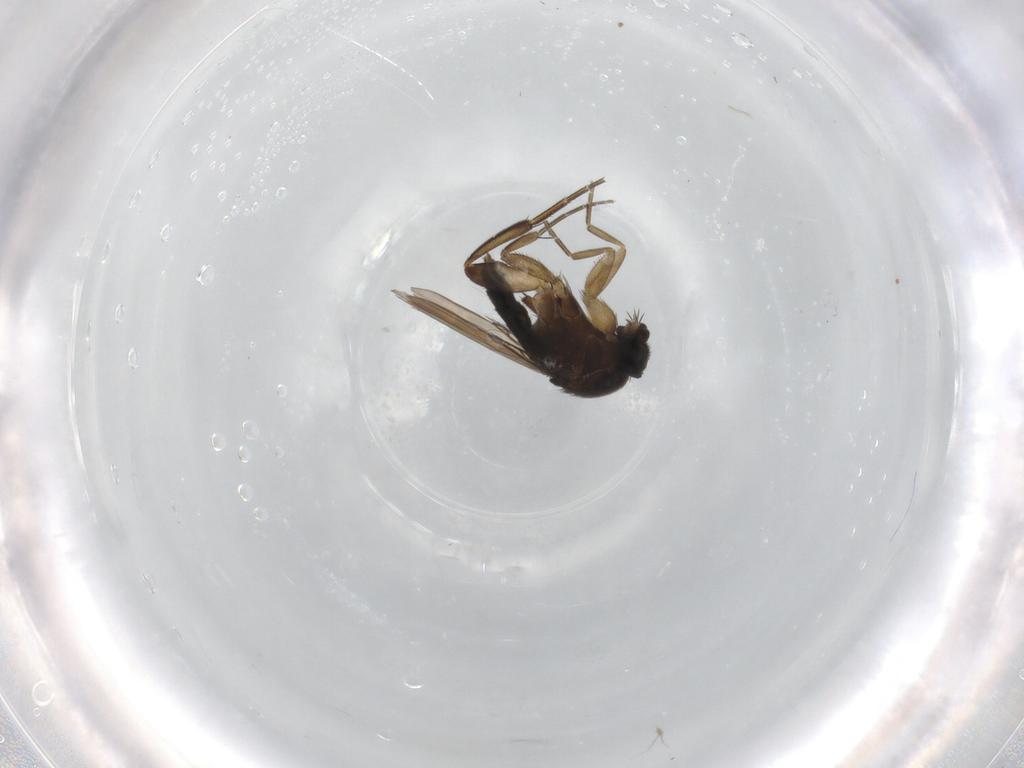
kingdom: Animalia
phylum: Arthropoda
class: Insecta
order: Diptera
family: Phoridae
